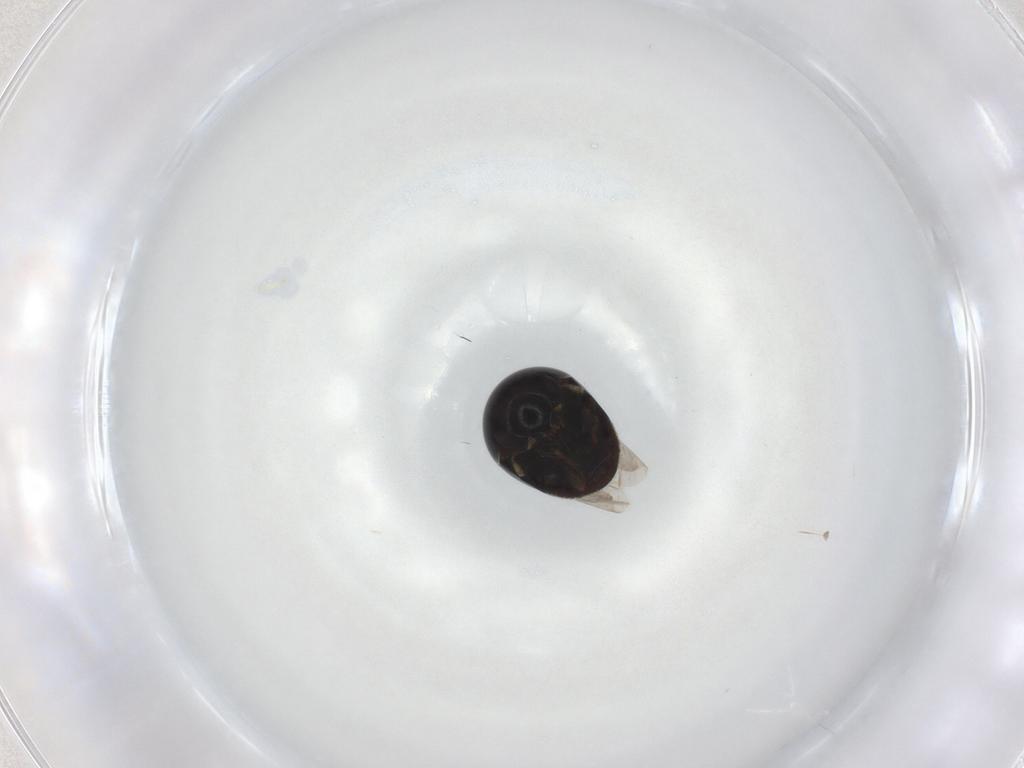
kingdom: Animalia
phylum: Arthropoda
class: Insecta
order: Coleoptera
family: Cybocephalidae
